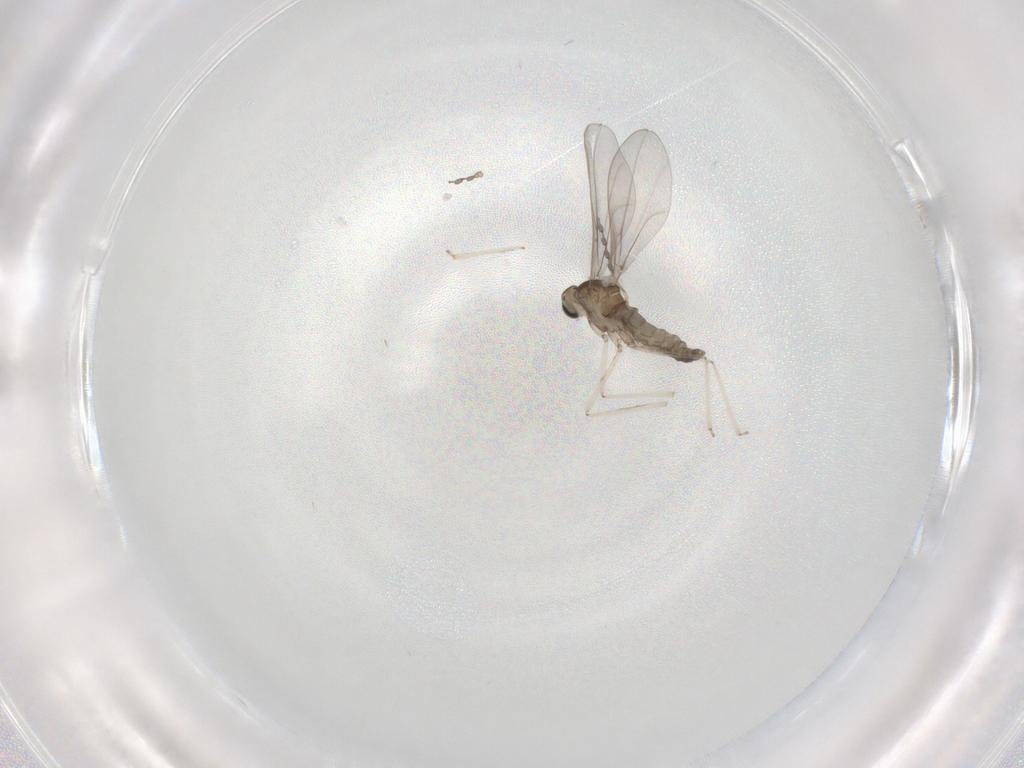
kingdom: Animalia
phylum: Arthropoda
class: Insecta
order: Diptera
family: Cecidomyiidae
